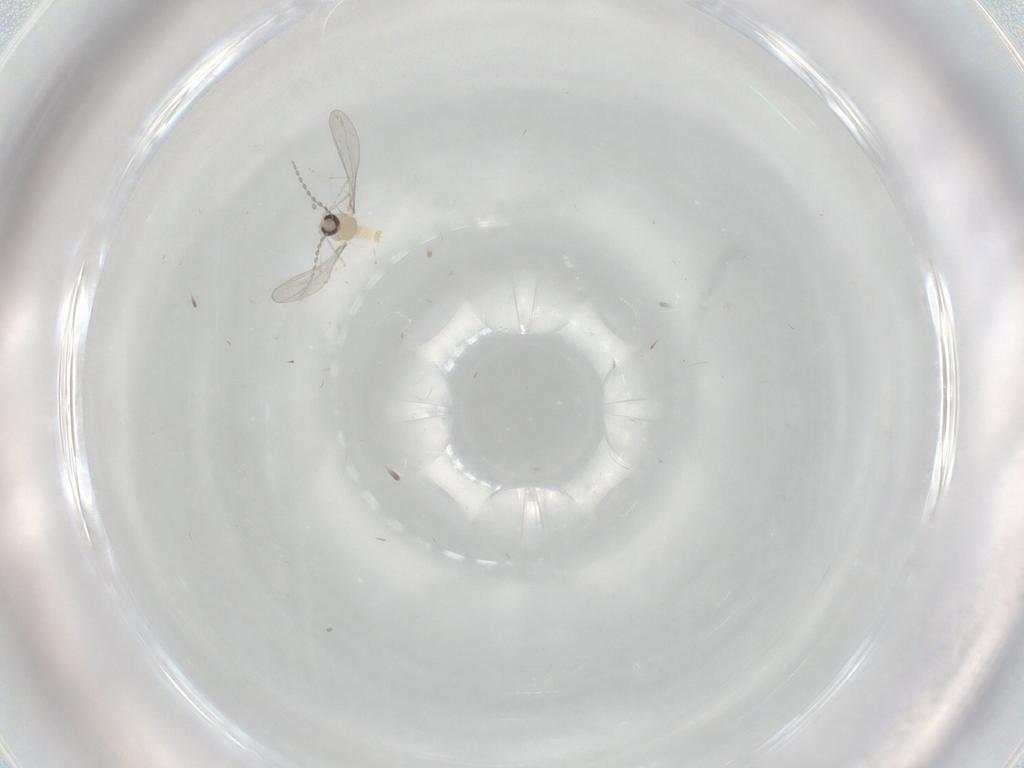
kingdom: Animalia
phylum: Arthropoda
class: Insecta
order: Diptera
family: Cecidomyiidae
